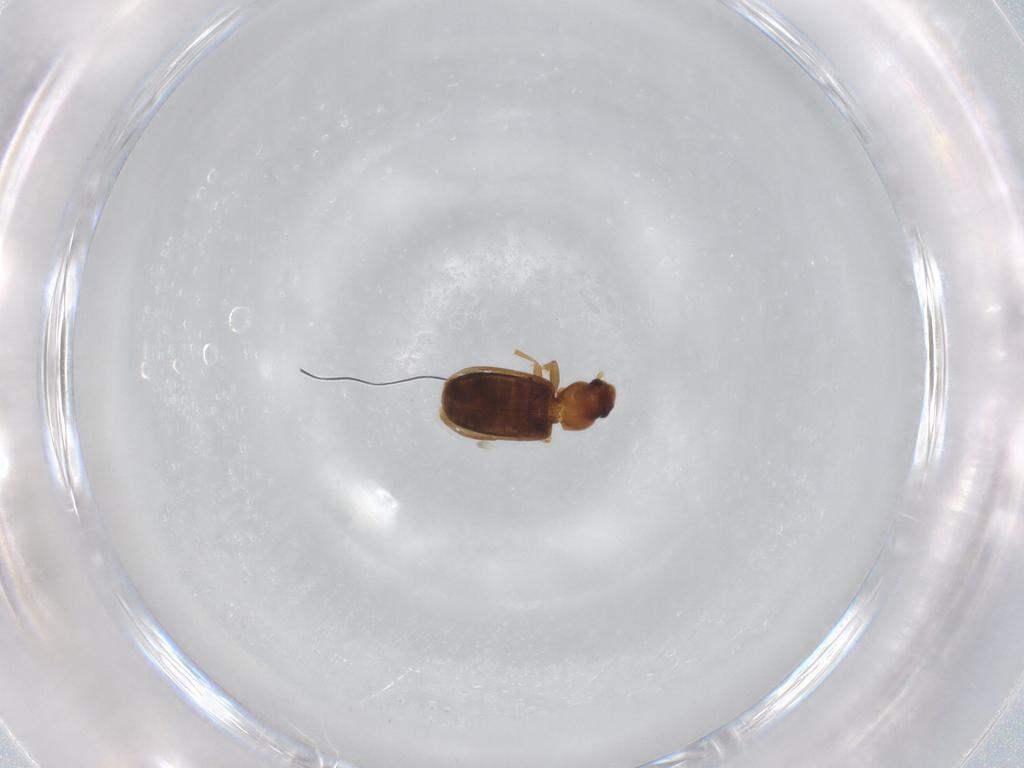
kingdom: Animalia
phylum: Arthropoda
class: Insecta
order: Coleoptera
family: Carabidae
